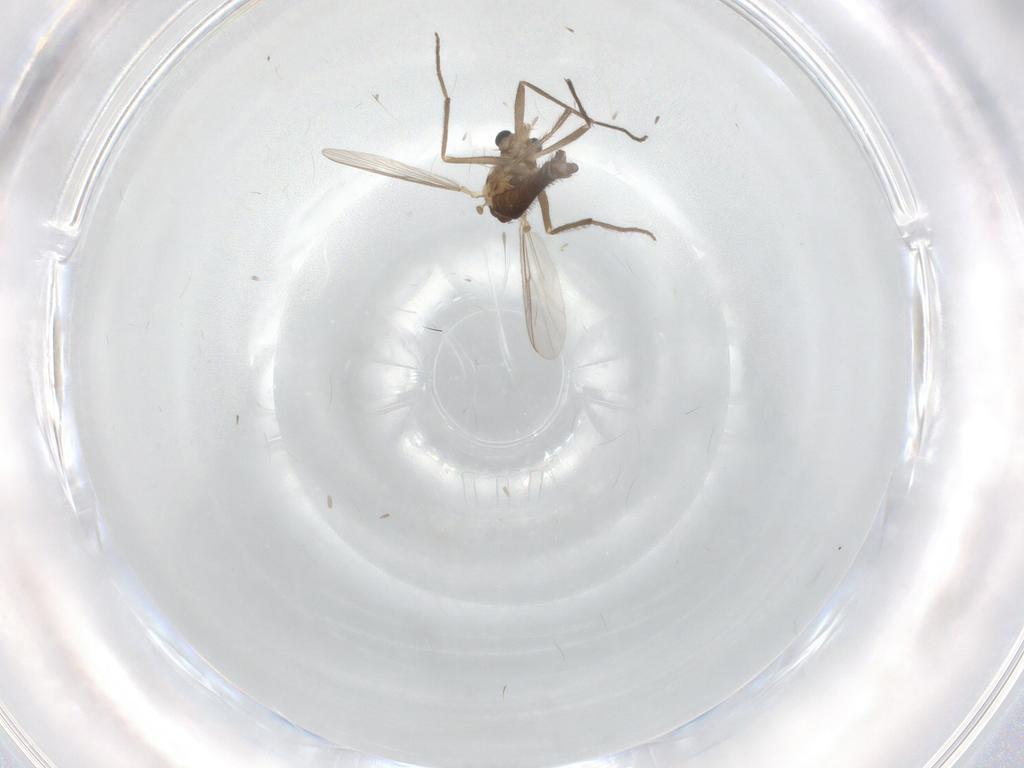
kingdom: Animalia
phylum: Arthropoda
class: Insecta
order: Diptera
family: Chironomidae
